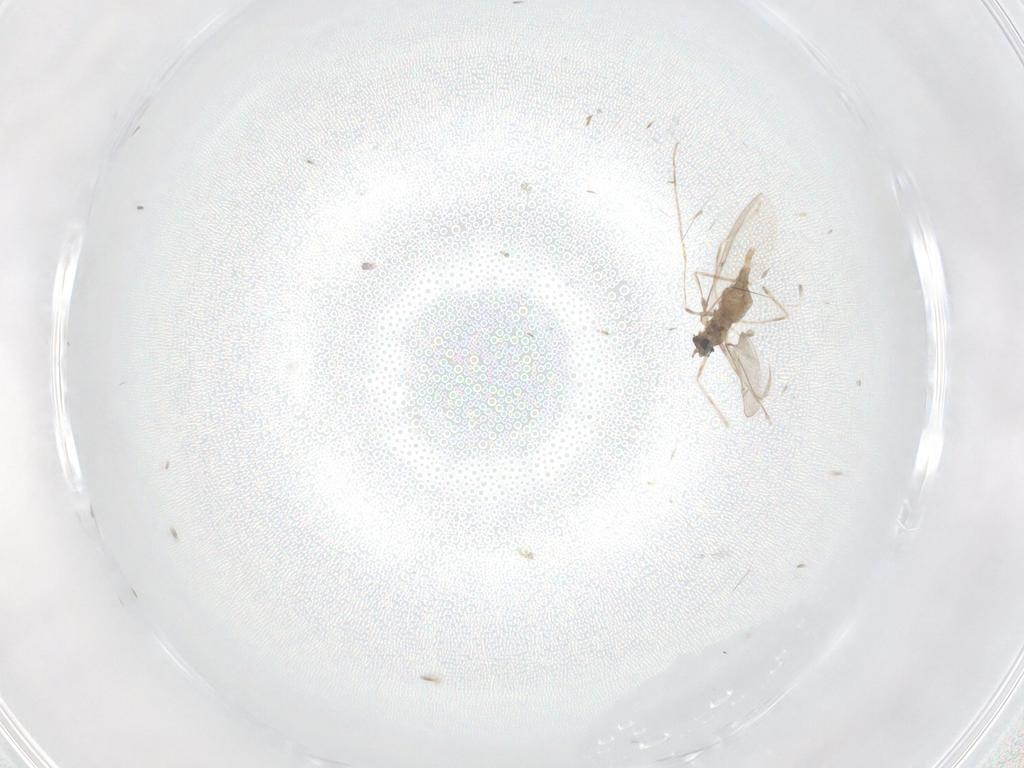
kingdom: Animalia
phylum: Arthropoda
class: Insecta
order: Diptera
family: Cecidomyiidae
